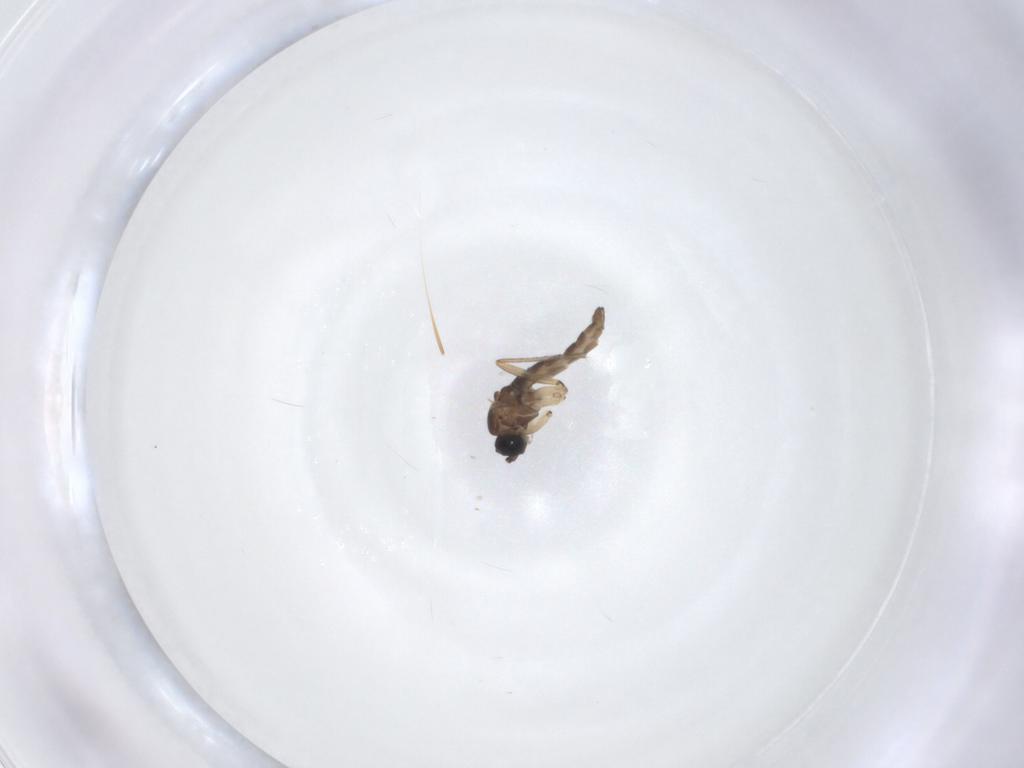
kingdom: Animalia
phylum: Arthropoda
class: Insecta
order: Diptera
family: Sciaridae
